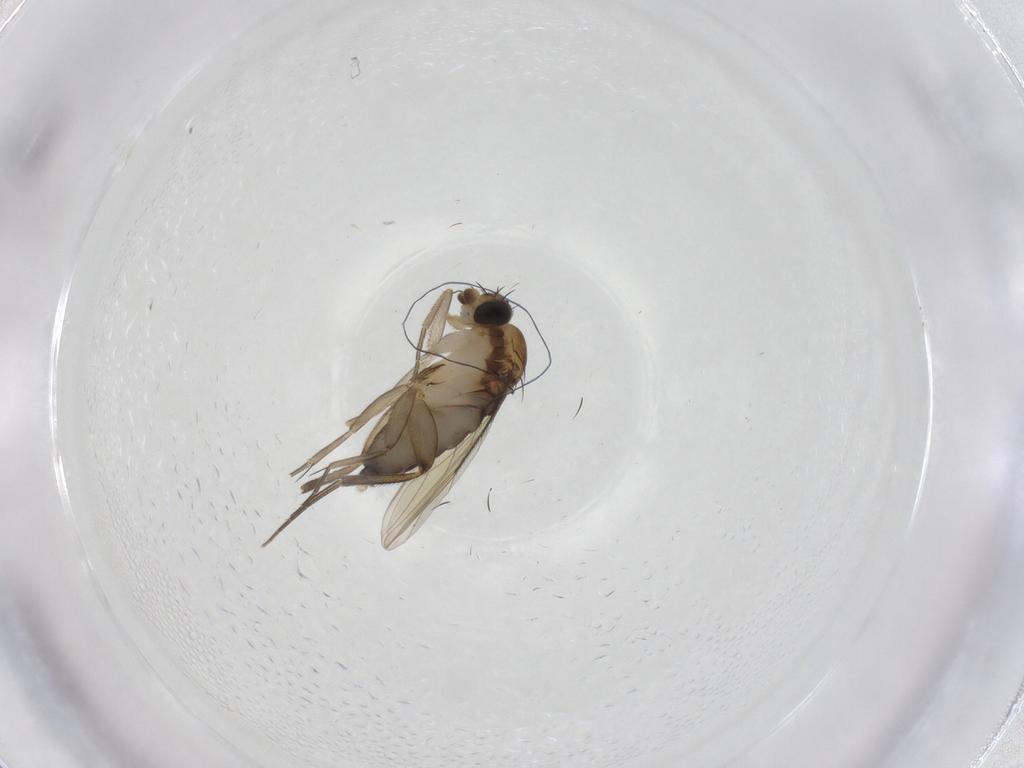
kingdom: Animalia
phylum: Arthropoda
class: Insecta
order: Diptera
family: Phoridae
